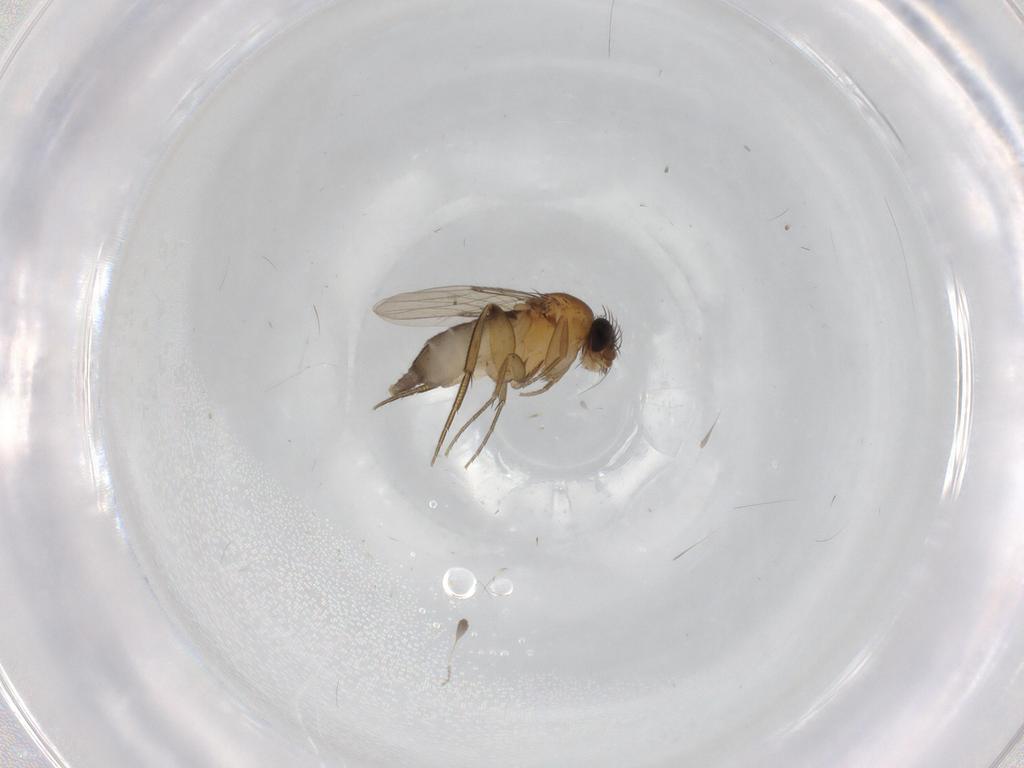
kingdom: Animalia
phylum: Arthropoda
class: Insecta
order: Diptera
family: Phoridae
